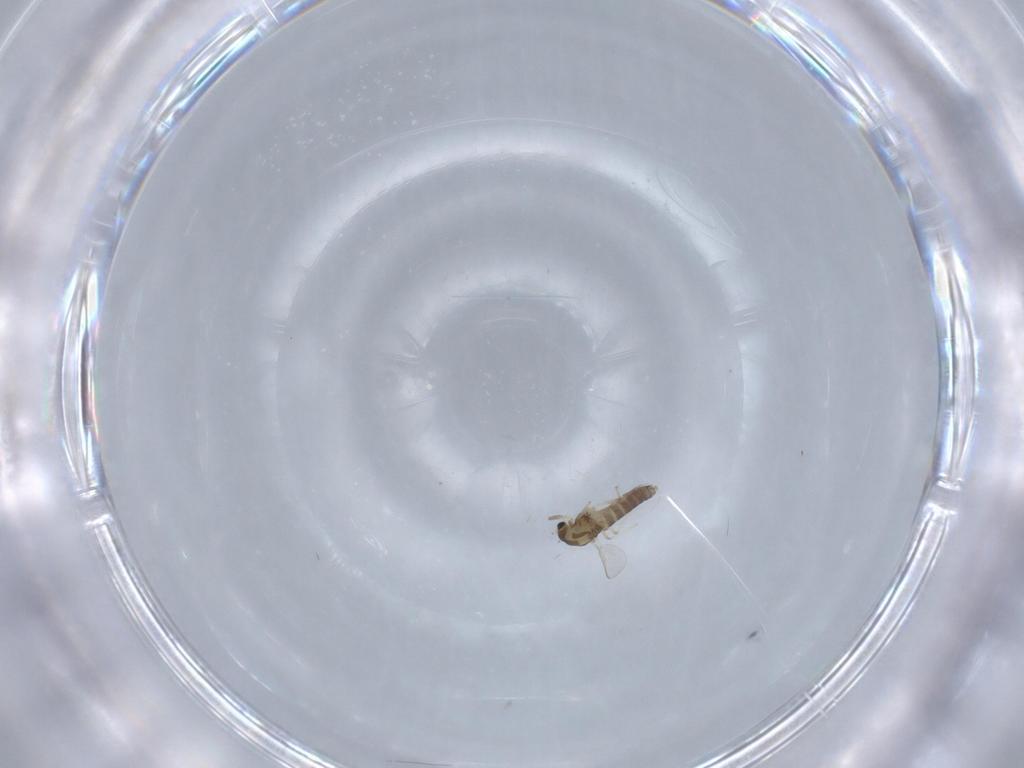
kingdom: Animalia
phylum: Arthropoda
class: Insecta
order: Diptera
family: Chironomidae
